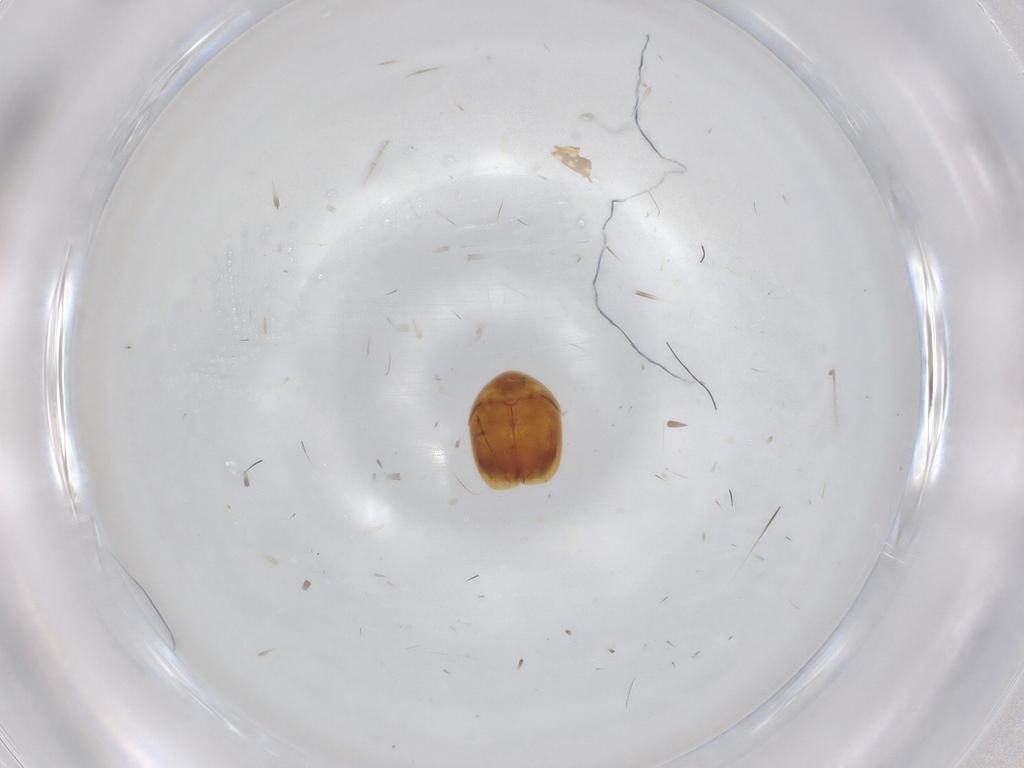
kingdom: Animalia
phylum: Arthropoda
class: Insecta
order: Coleoptera
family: Corylophidae
